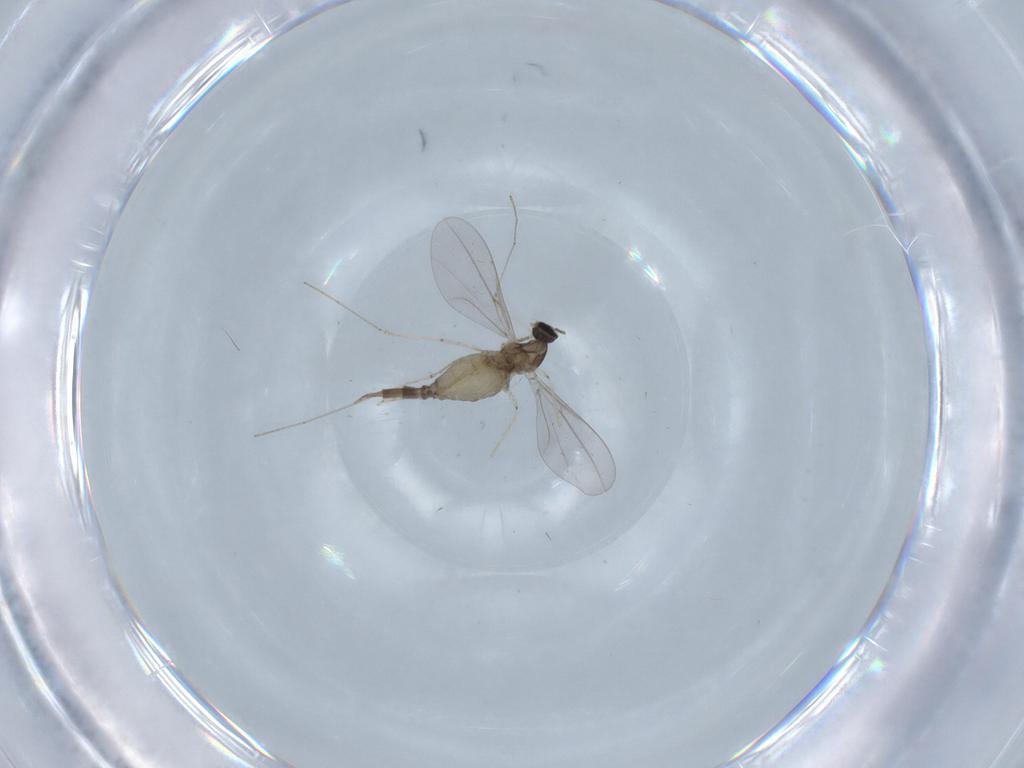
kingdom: Animalia
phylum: Arthropoda
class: Insecta
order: Diptera
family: Cecidomyiidae
